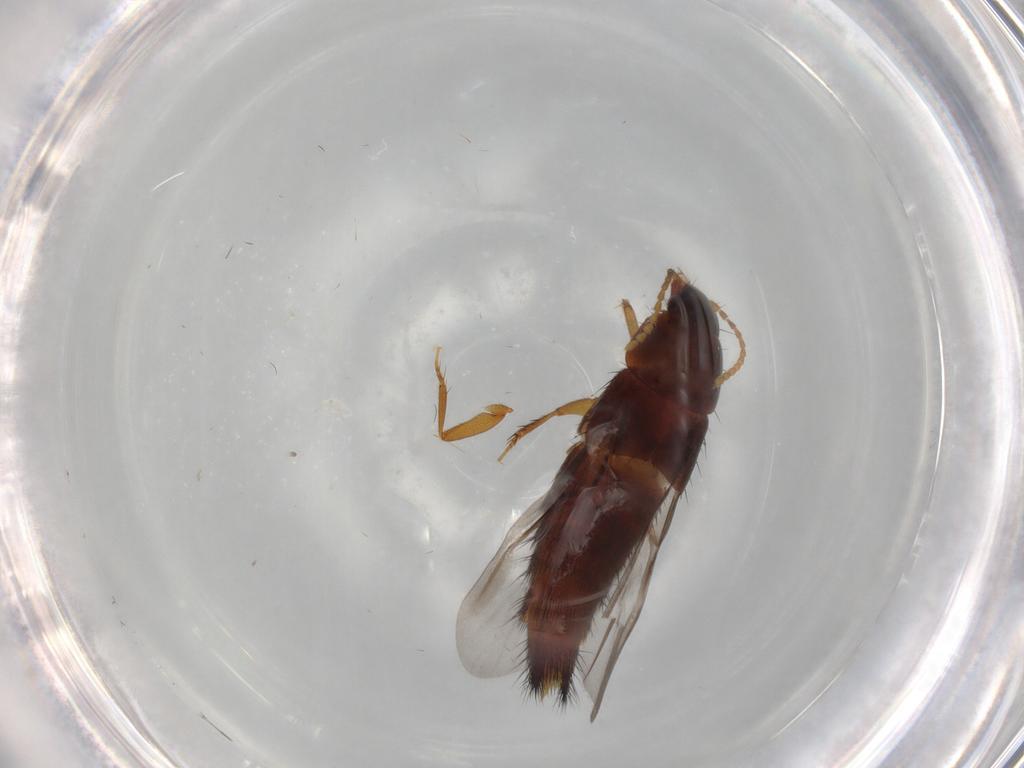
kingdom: Animalia
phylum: Arthropoda
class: Insecta
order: Coleoptera
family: Staphylinidae
